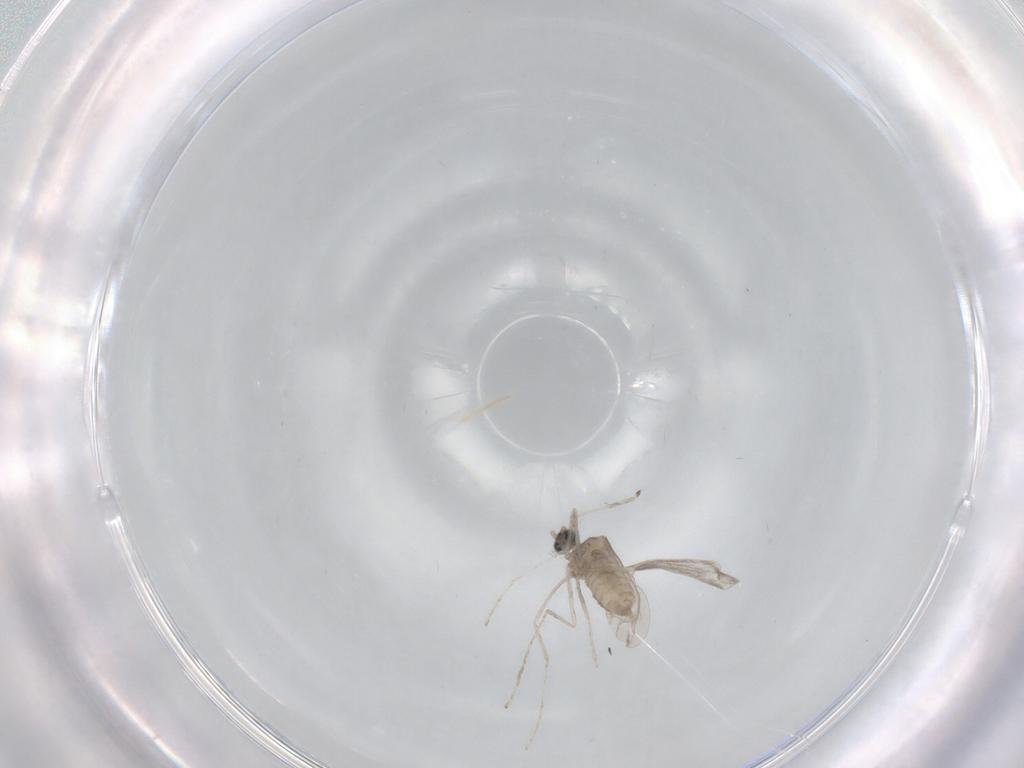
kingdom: Animalia
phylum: Arthropoda
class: Insecta
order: Diptera
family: Cecidomyiidae
